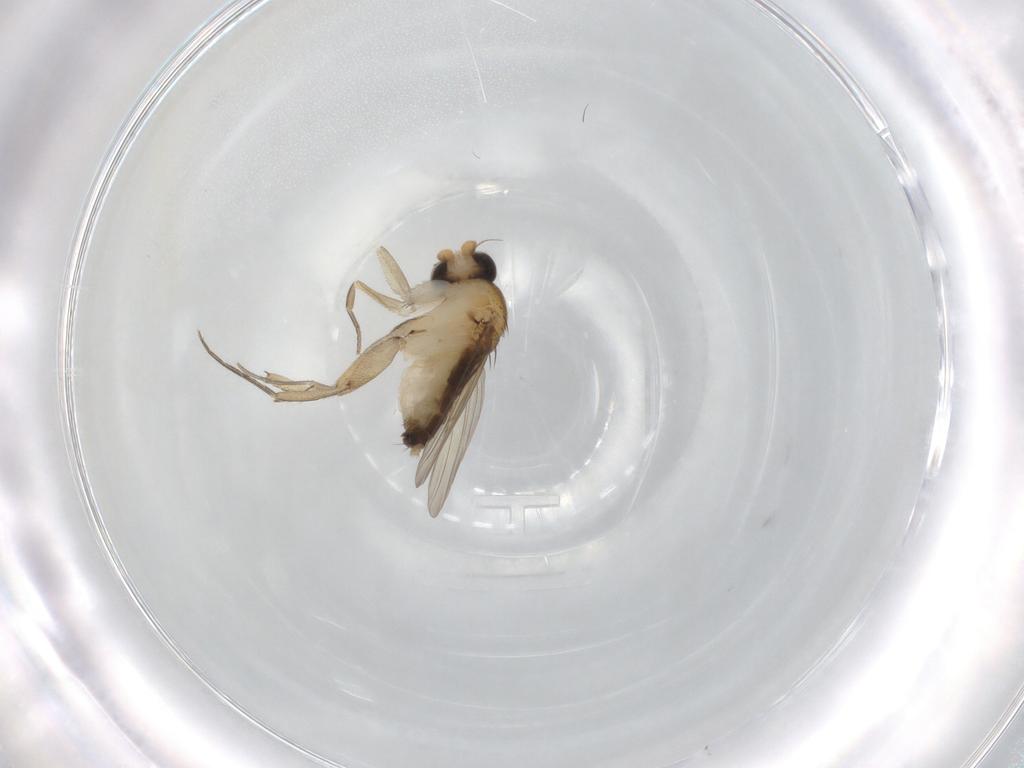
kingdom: Animalia
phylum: Arthropoda
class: Insecta
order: Diptera
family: Phoridae
